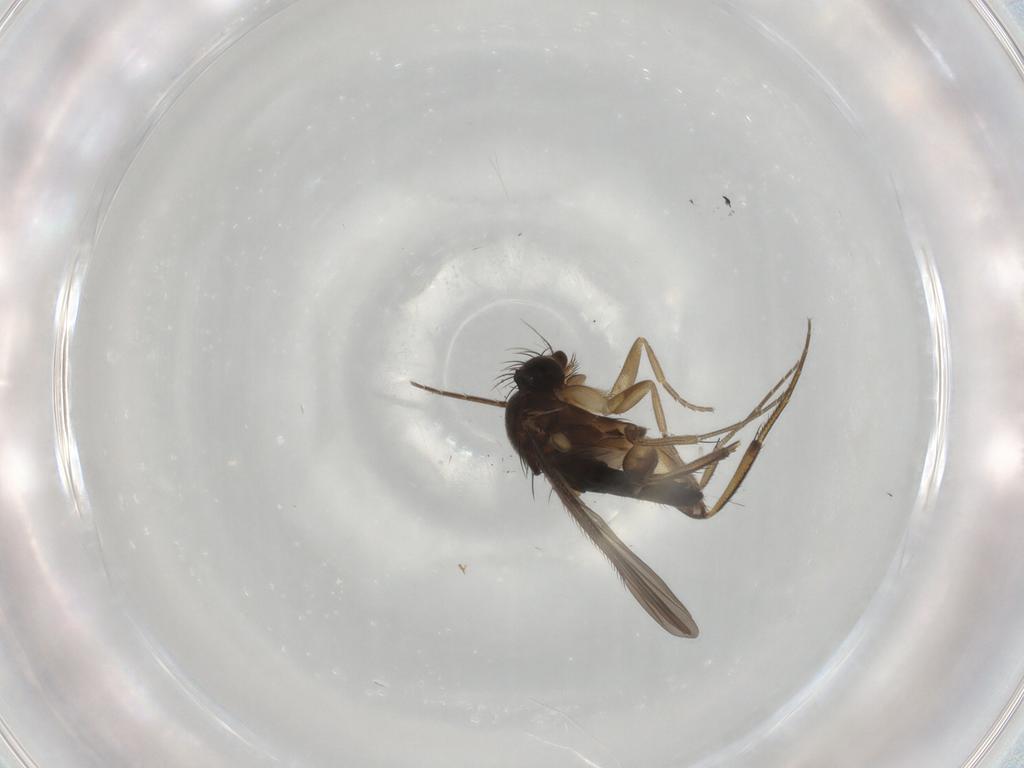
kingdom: Animalia
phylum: Arthropoda
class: Insecta
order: Diptera
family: Phoridae
